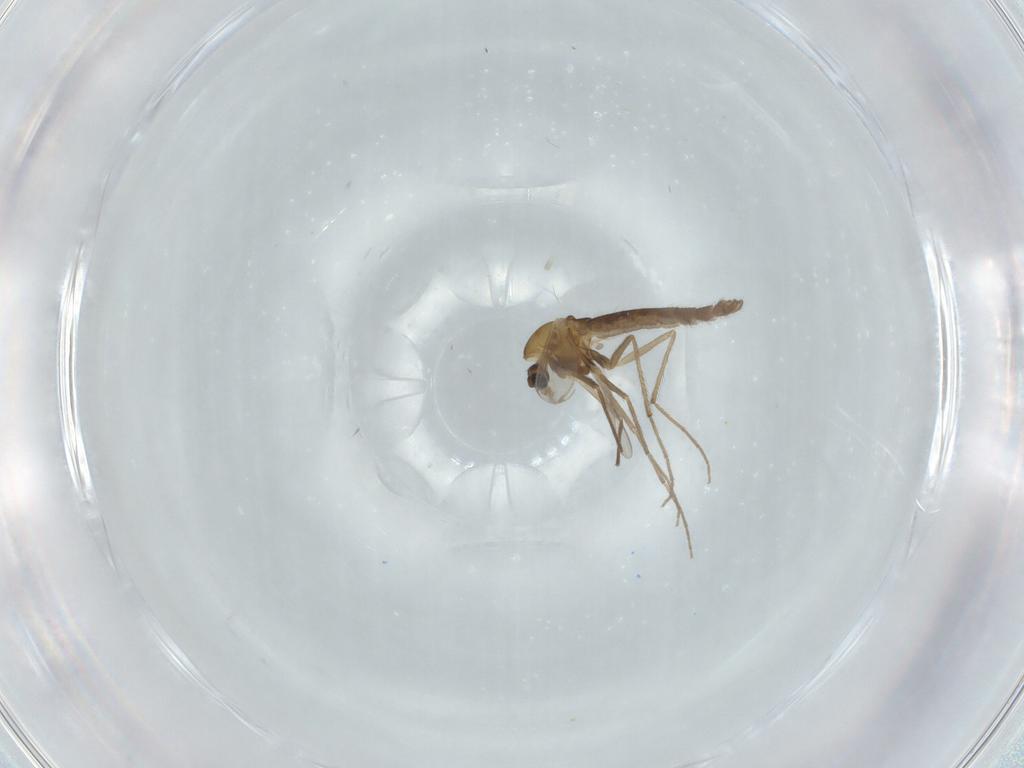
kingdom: Animalia
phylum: Arthropoda
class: Insecta
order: Diptera
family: Chironomidae
